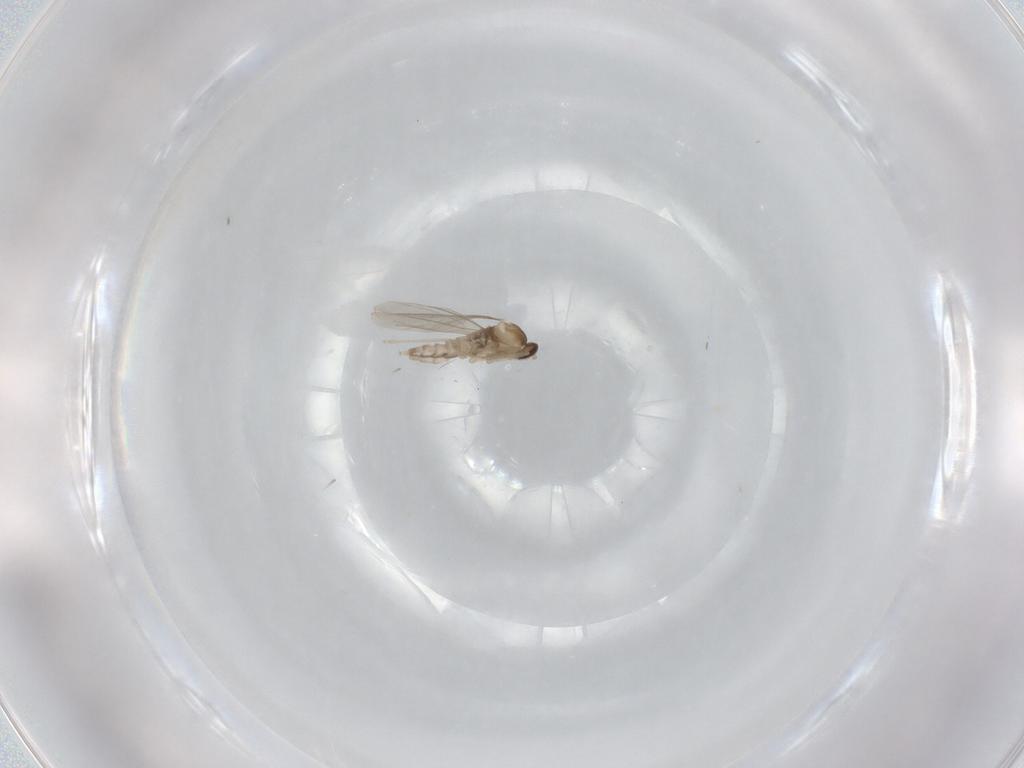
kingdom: Animalia
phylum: Arthropoda
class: Insecta
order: Diptera
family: Cecidomyiidae
